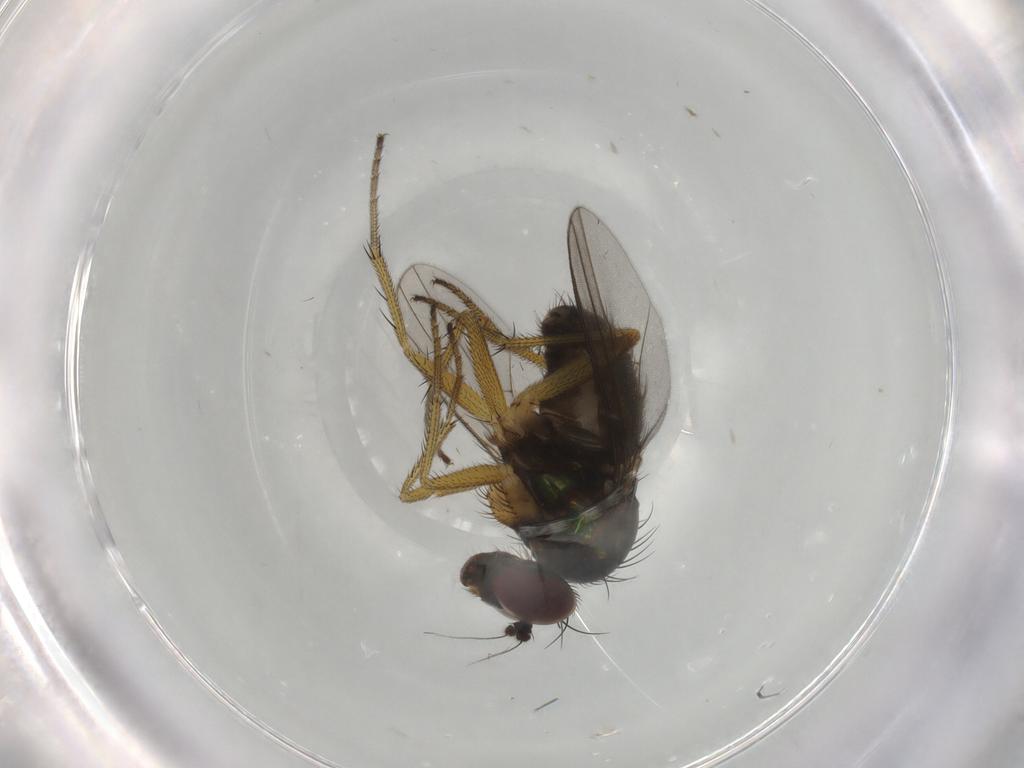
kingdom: Animalia
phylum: Arthropoda
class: Insecta
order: Diptera
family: Dolichopodidae
